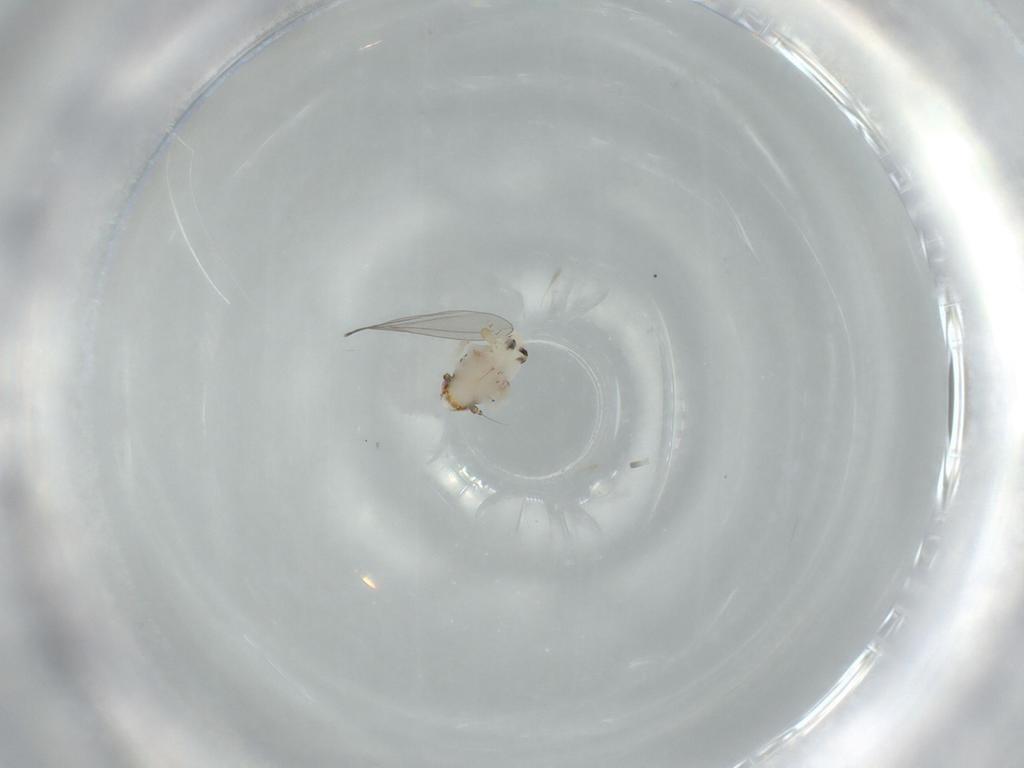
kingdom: Animalia
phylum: Arthropoda
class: Insecta
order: Diptera
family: Cecidomyiidae
